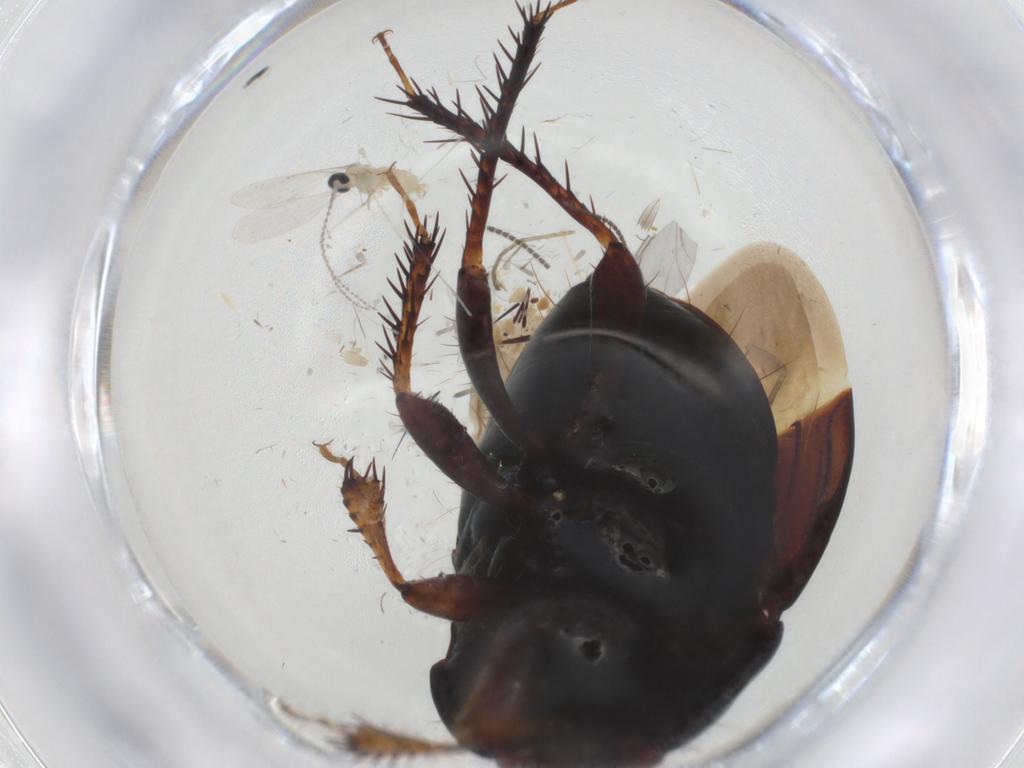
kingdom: Animalia
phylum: Arthropoda
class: Insecta
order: Hemiptera
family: Cydnidae
